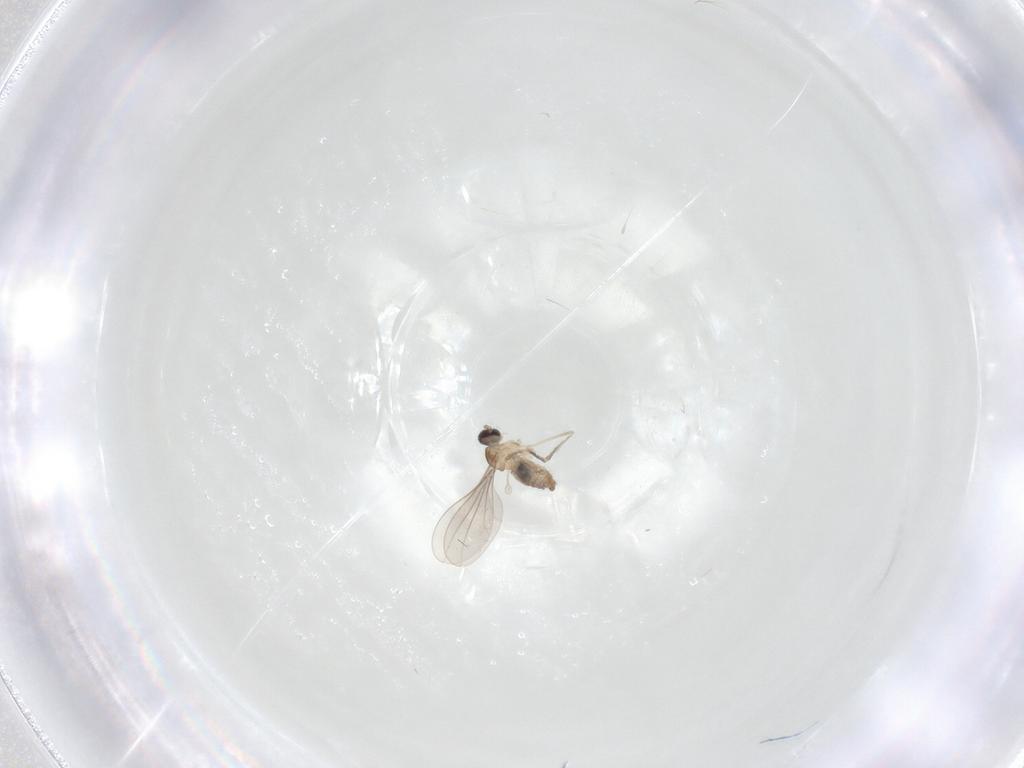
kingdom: Animalia
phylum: Arthropoda
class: Insecta
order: Diptera
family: Cecidomyiidae
